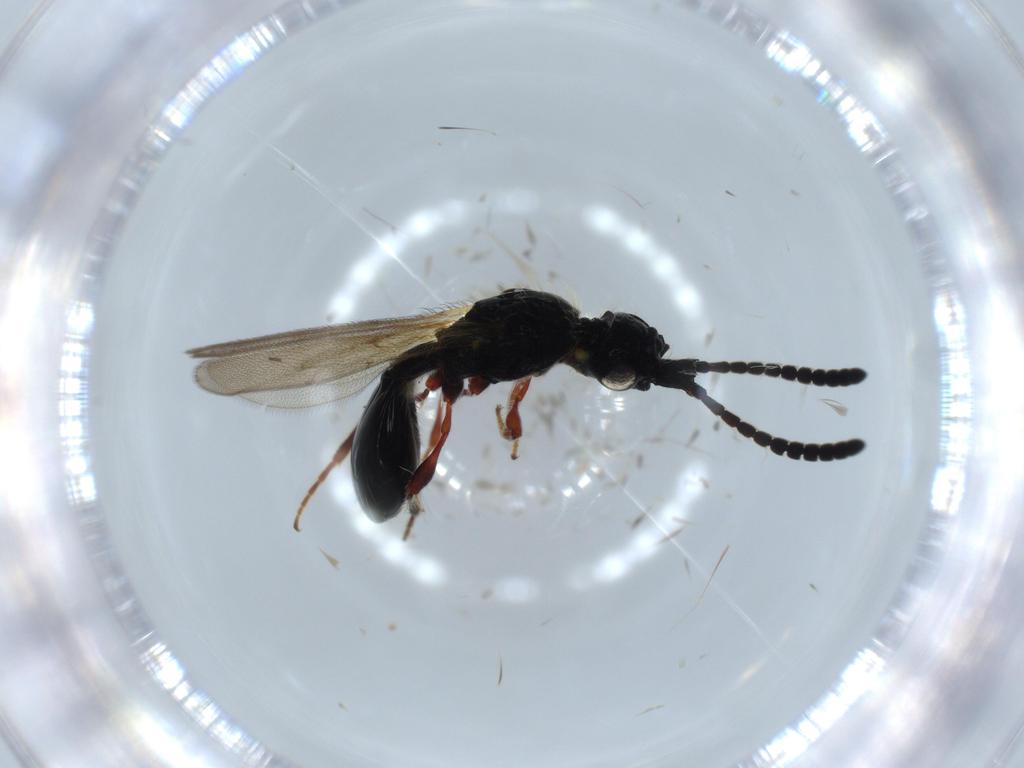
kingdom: Animalia
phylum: Arthropoda
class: Insecta
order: Hymenoptera
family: Diapriidae
